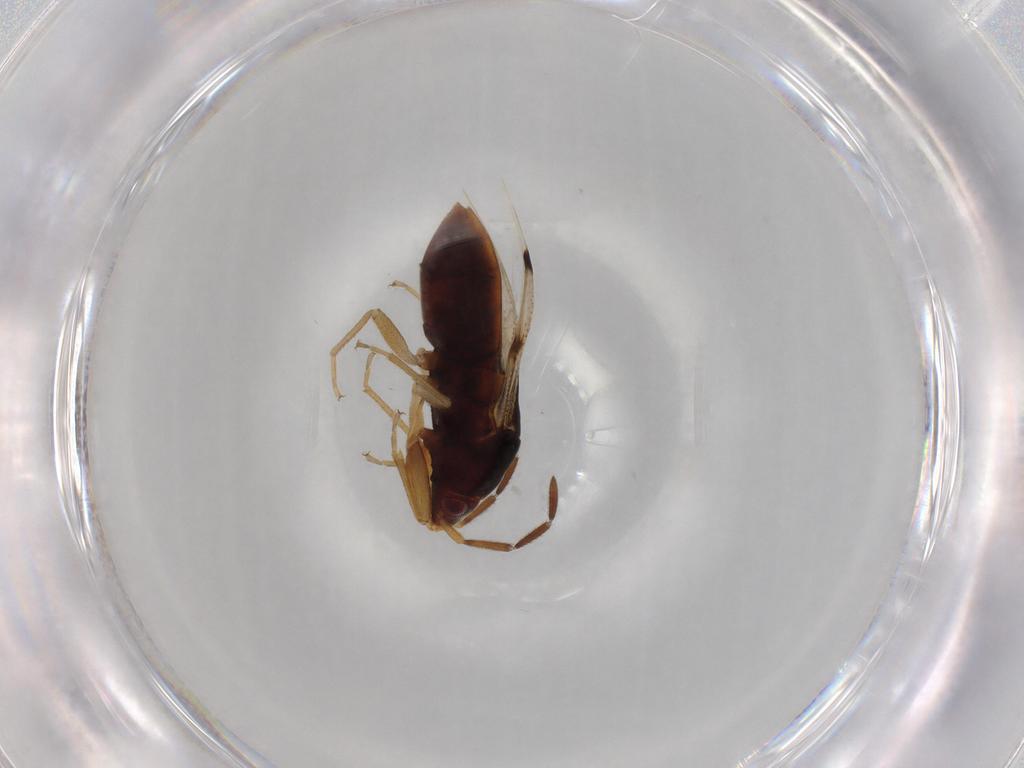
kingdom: Animalia
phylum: Arthropoda
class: Insecta
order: Hemiptera
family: Rhyparochromidae
